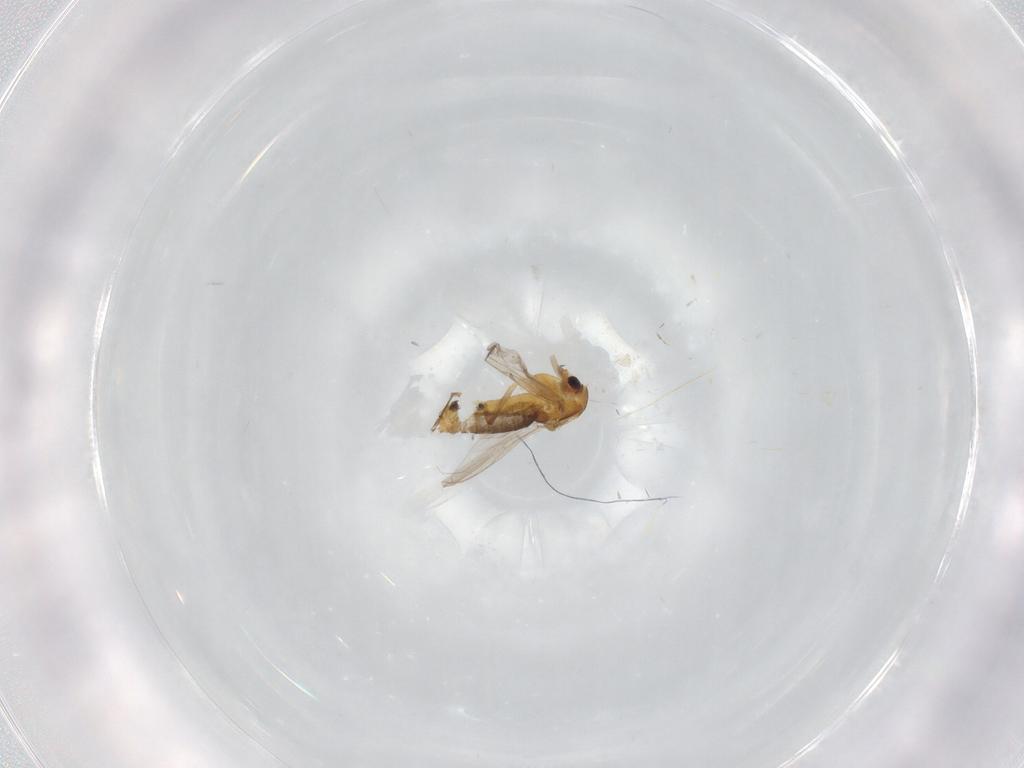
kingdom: Animalia
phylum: Arthropoda
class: Insecta
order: Diptera
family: Chironomidae
